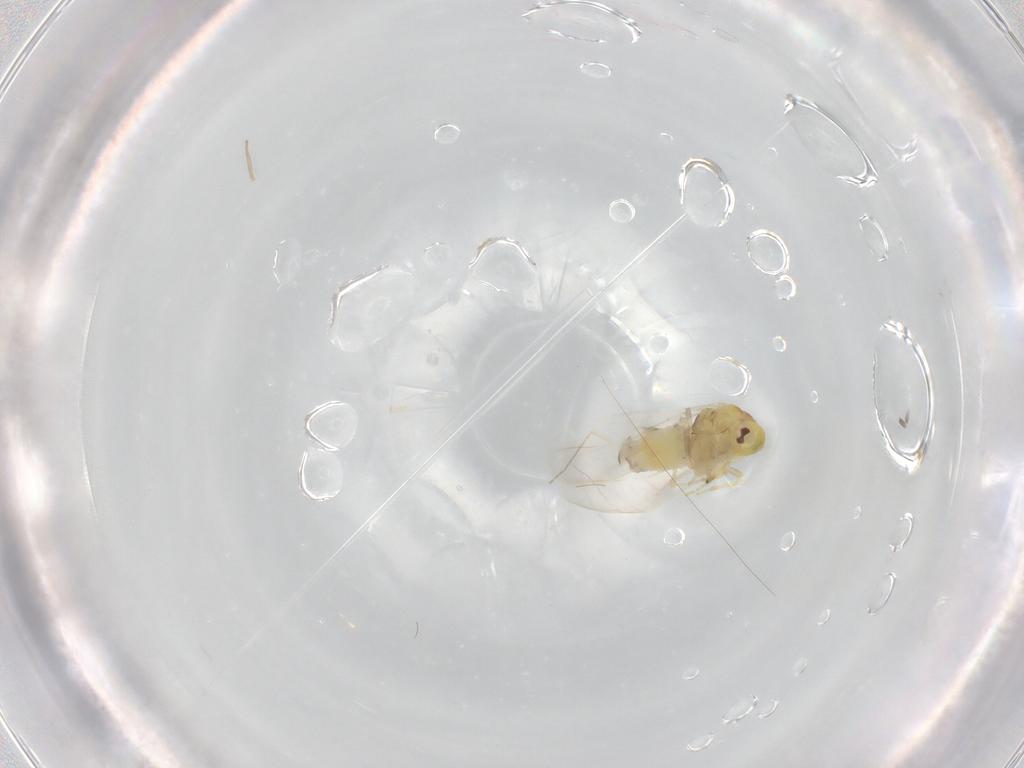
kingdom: Animalia
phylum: Arthropoda
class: Insecta
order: Hemiptera
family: Aleyrodidae
